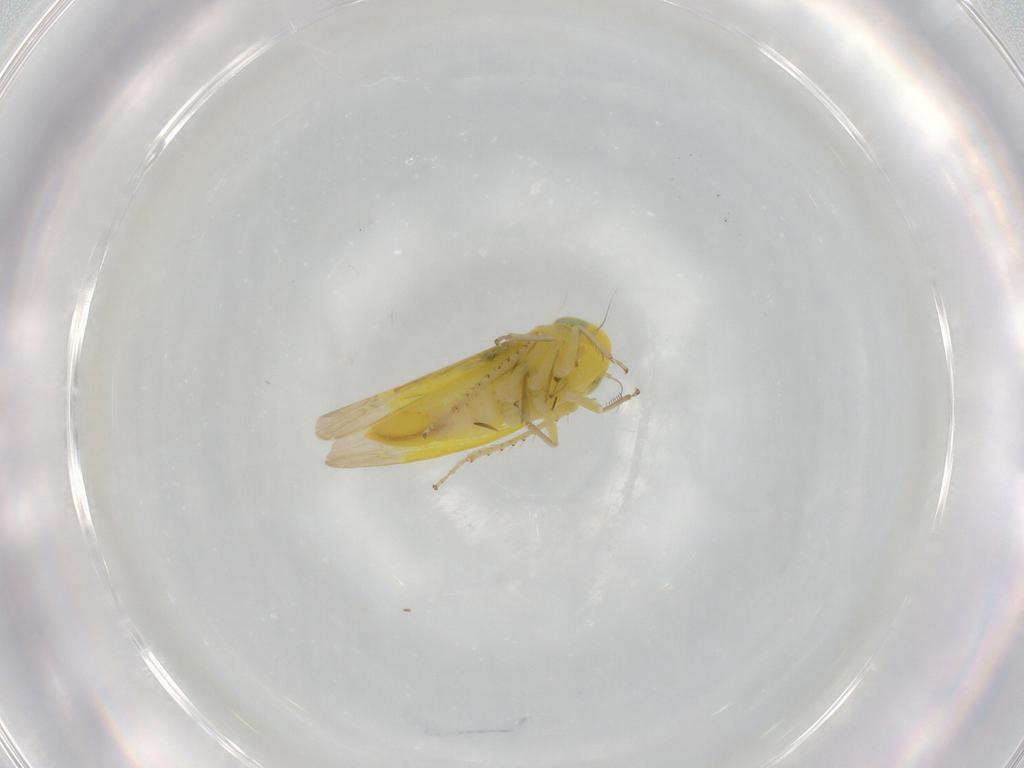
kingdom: Animalia
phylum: Arthropoda
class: Insecta
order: Hemiptera
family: Cicadellidae
